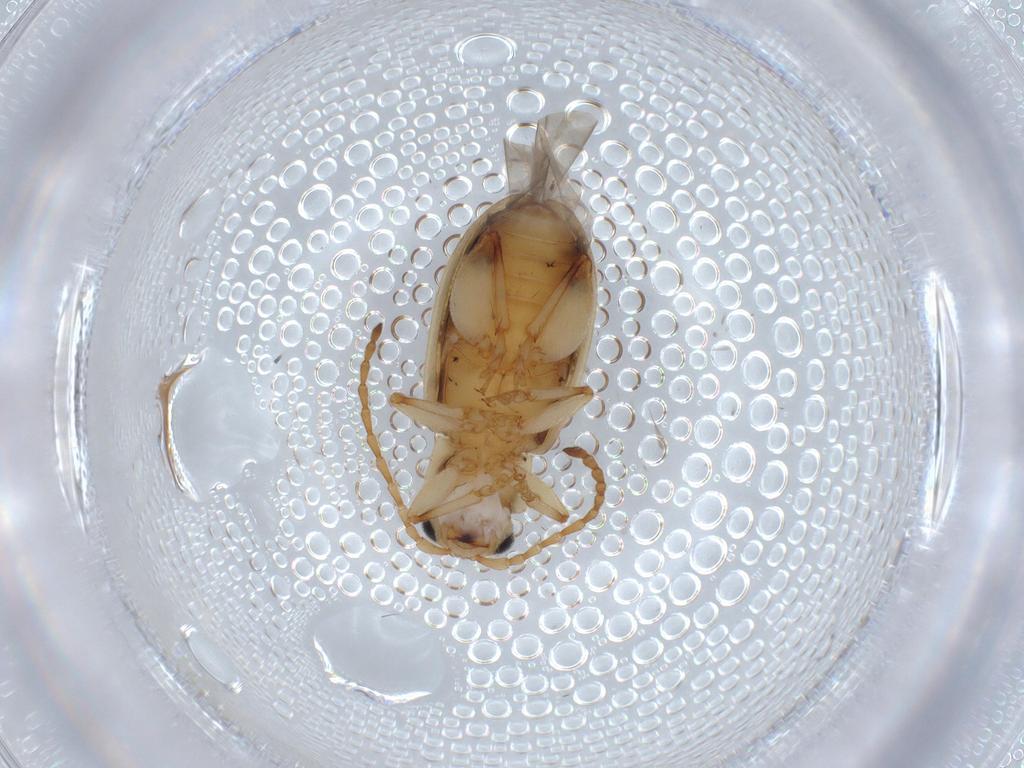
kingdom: Animalia
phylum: Arthropoda
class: Insecta
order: Coleoptera
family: Chrysomelidae
